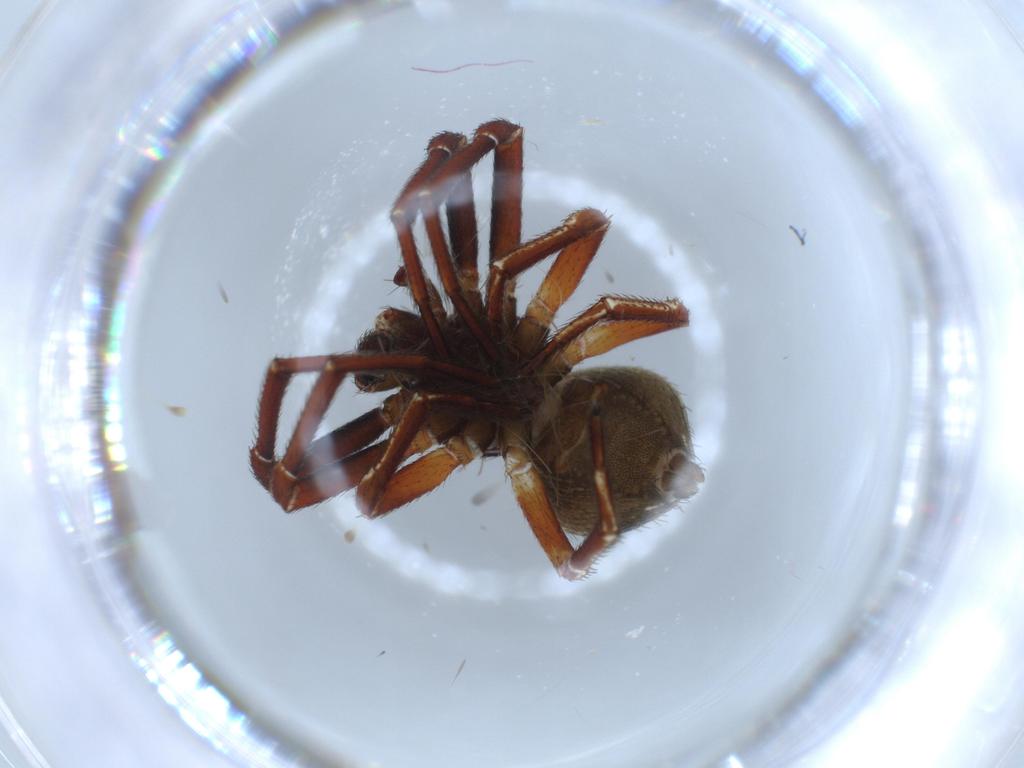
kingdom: Animalia
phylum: Arthropoda
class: Arachnida
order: Araneae
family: Thomisidae
